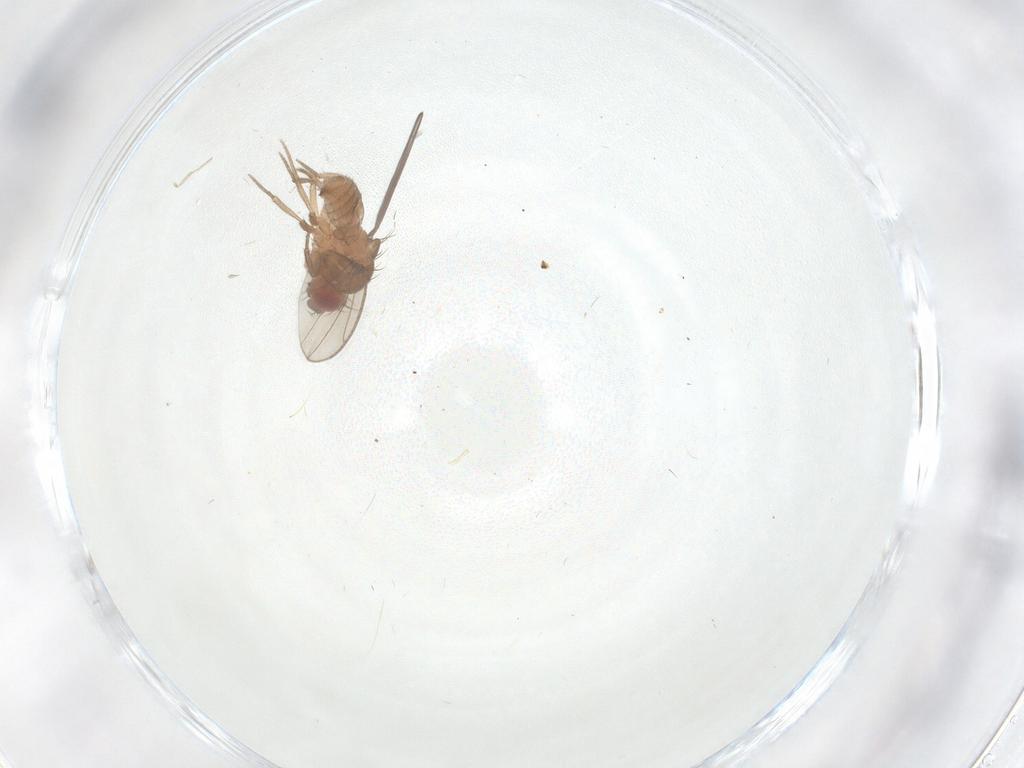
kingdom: Animalia
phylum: Arthropoda
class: Insecta
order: Diptera
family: Drosophilidae
